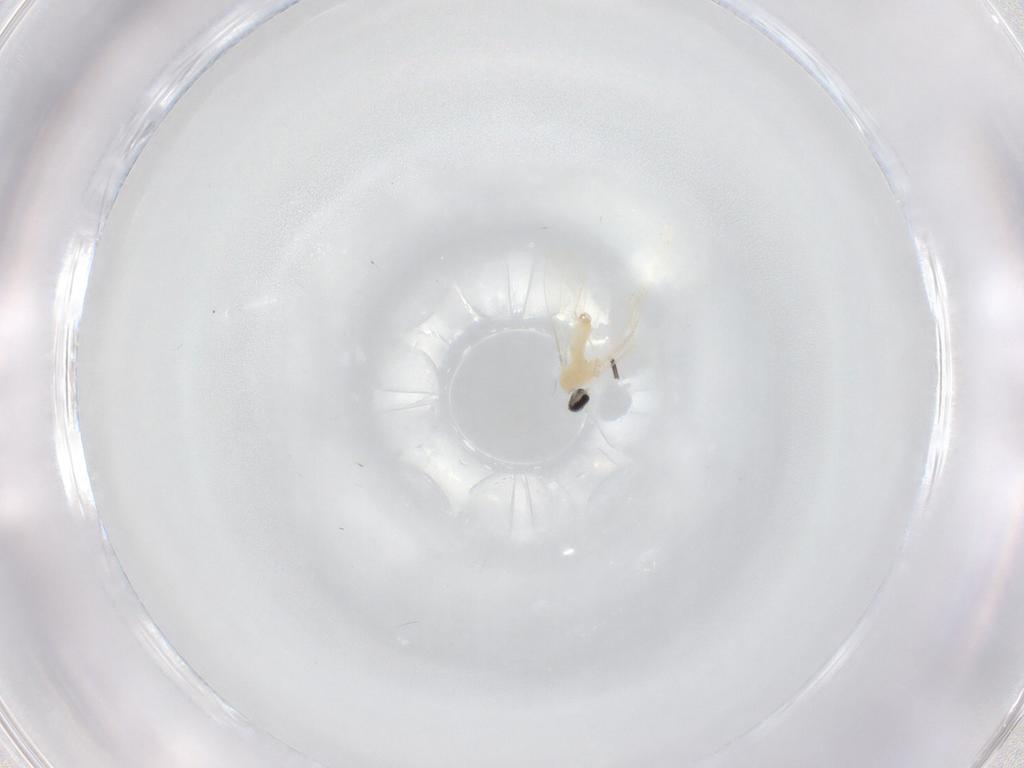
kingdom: Animalia
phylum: Arthropoda
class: Insecta
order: Diptera
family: Cecidomyiidae
